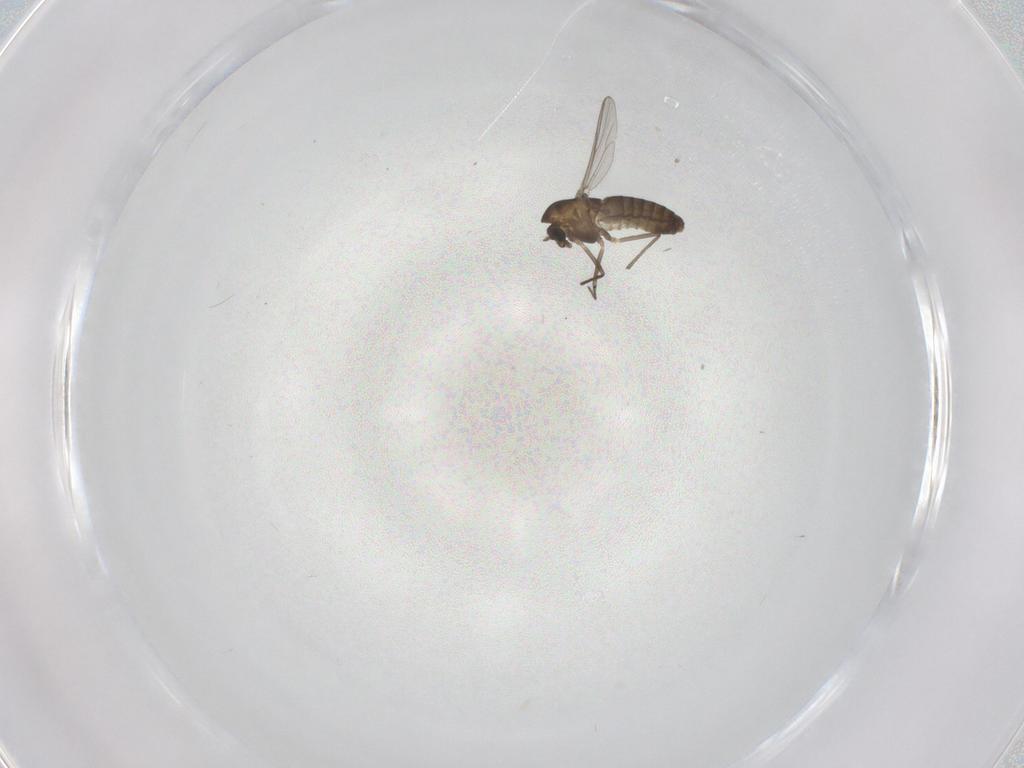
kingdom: Animalia
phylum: Arthropoda
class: Insecta
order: Diptera
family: Chironomidae
